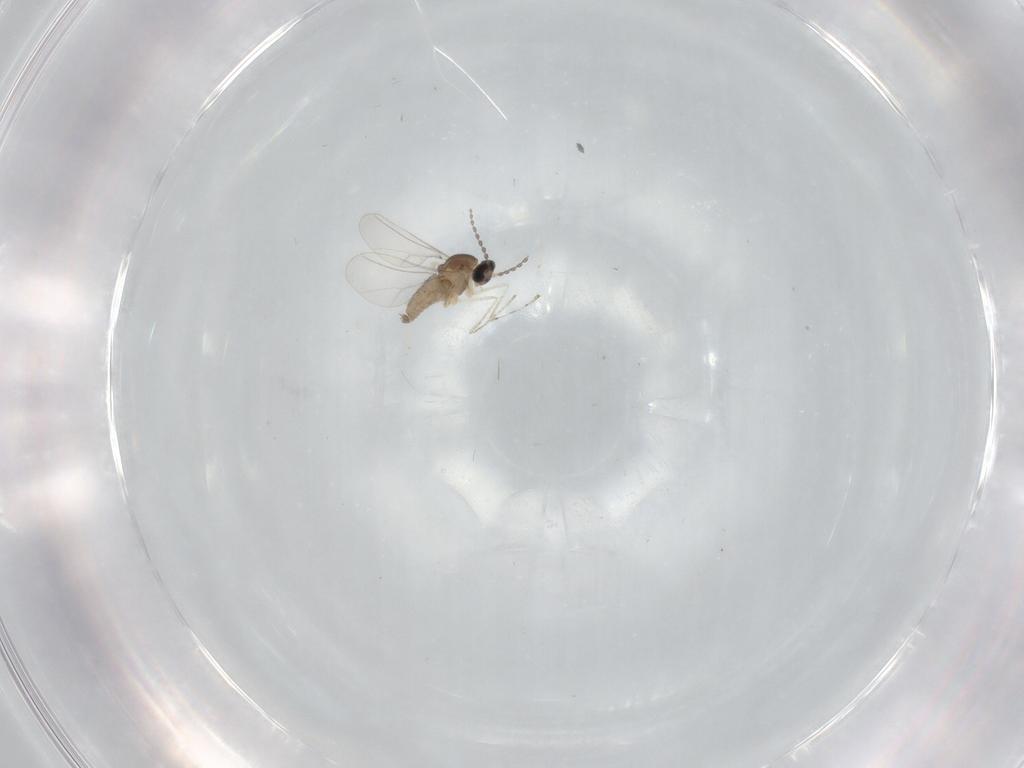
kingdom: Animalia
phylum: Arthropoda
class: Insecta
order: Diptera
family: Cecidomyiidae
